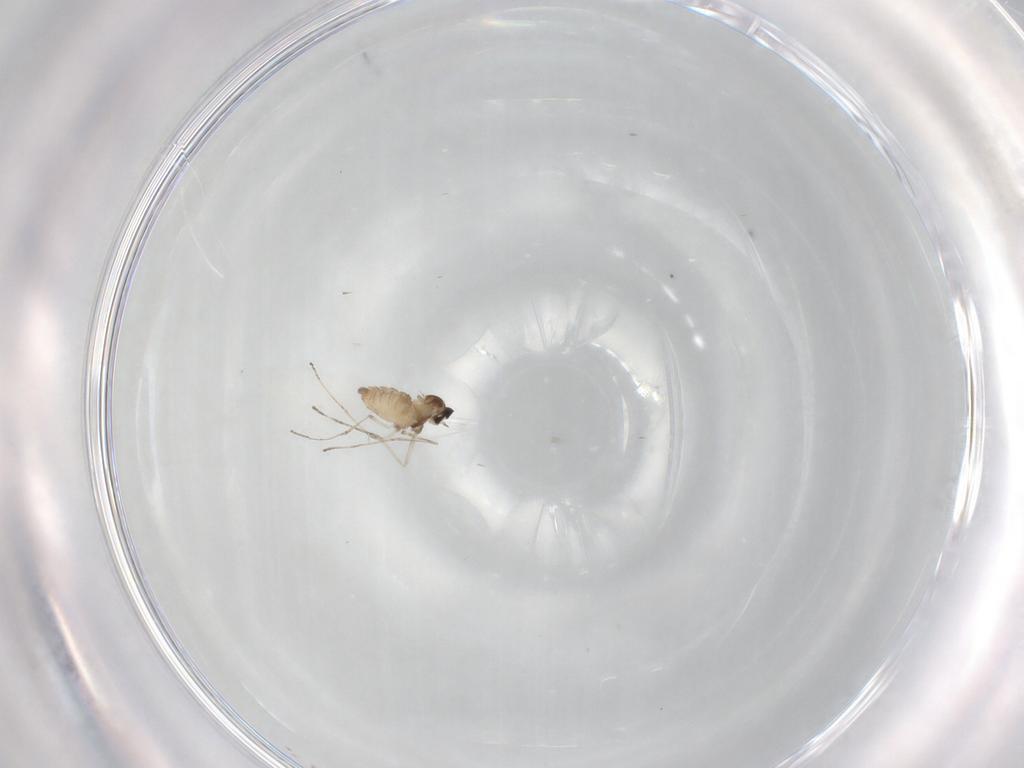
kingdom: Animalia
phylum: Arthropoda
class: Insecta
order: Diptera
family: Cecidomyiidae
